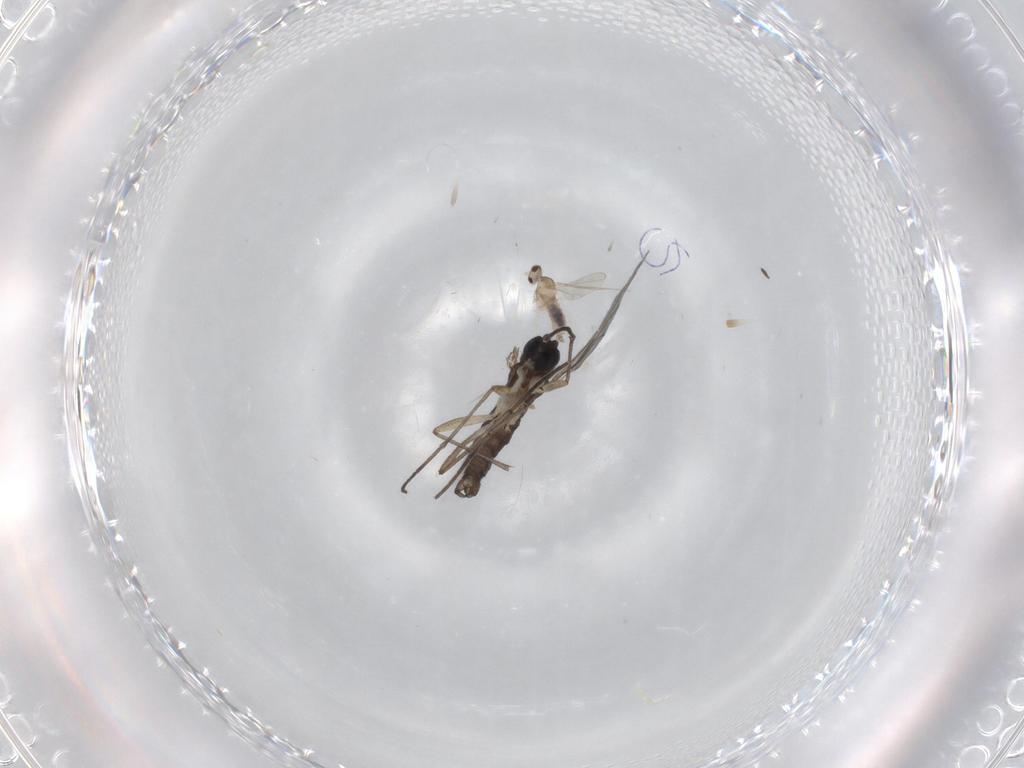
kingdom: Animalia
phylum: Arthropoda
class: Insecta
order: Diptera
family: Sciaridae
